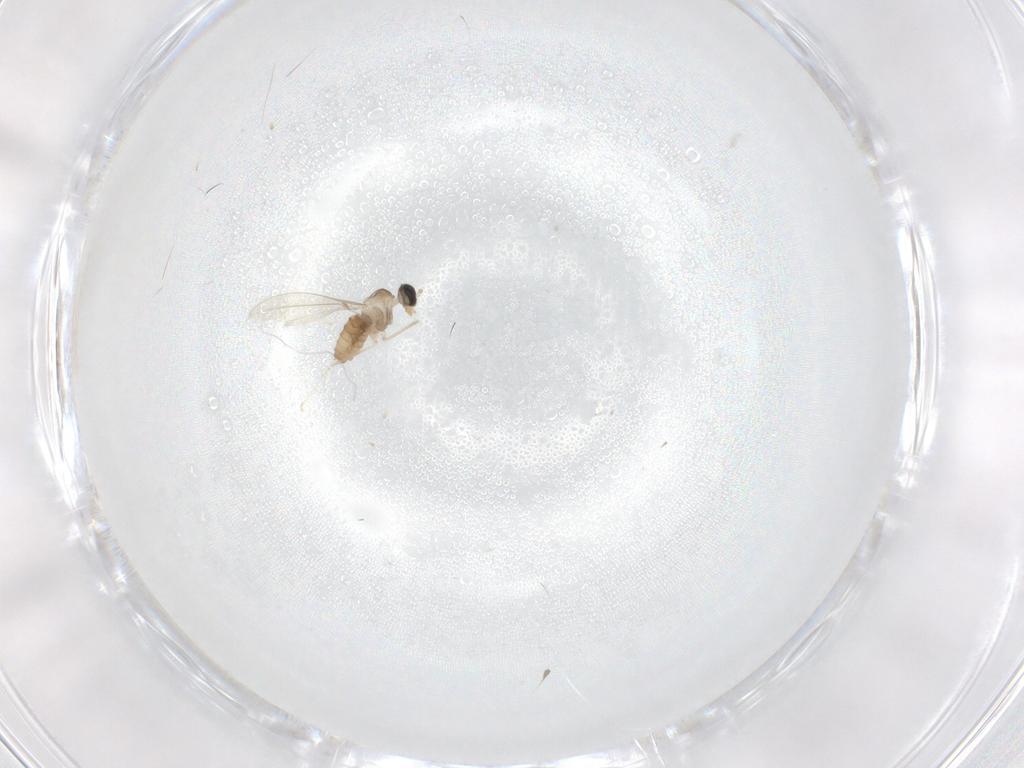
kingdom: Animalia
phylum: Arthropoda
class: Insecta
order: Diptera
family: Cecidomyiidae
